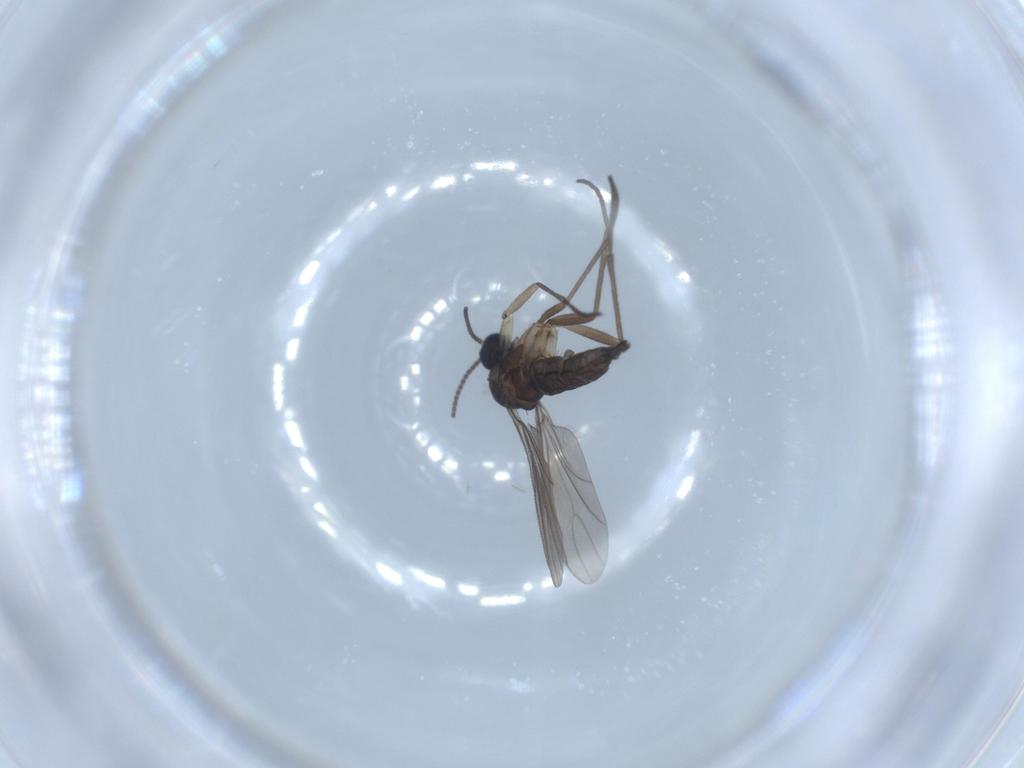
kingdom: Animalia
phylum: Arthropoda
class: Insecta
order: Diptera
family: Sciaridae
